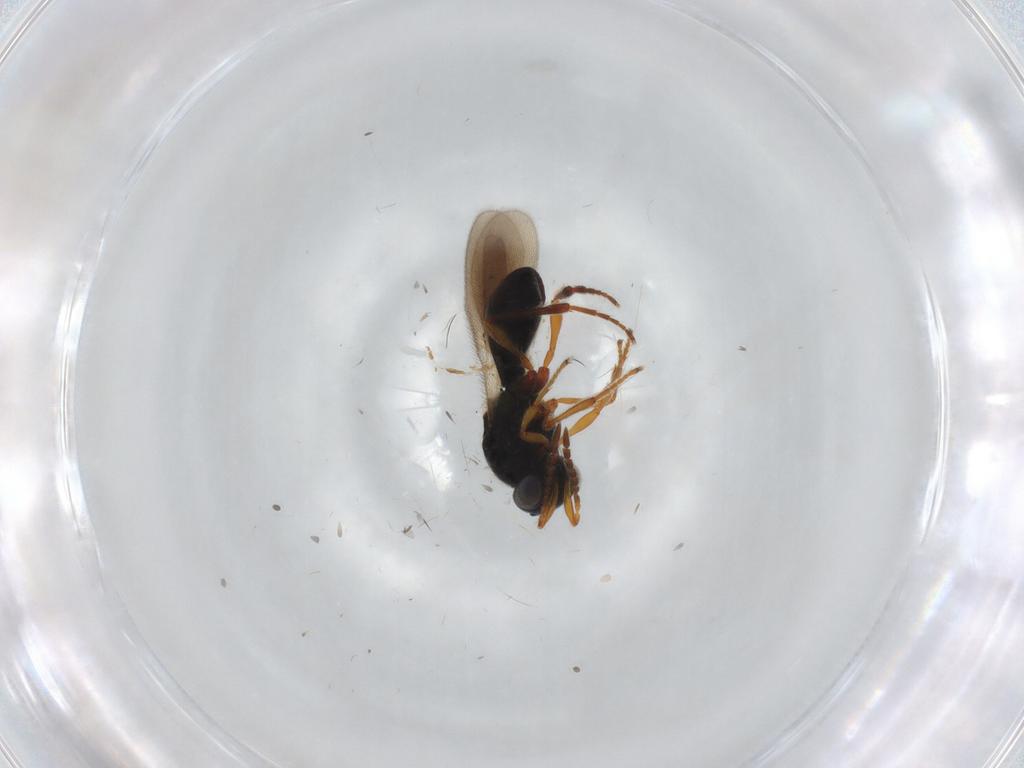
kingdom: Animalia
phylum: Arthropoda
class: Insecta
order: Hymenoptera
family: Platygastridae
